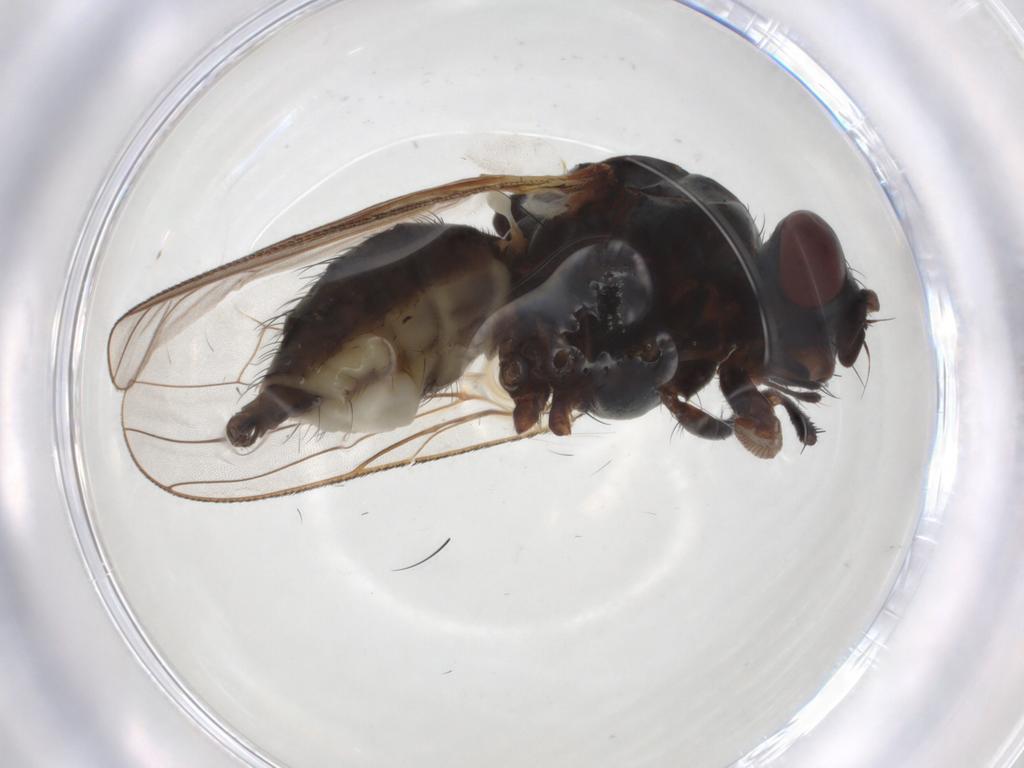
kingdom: Animalia
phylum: Arthropoda
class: Insecta
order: Diptera
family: Anthomyiidae
